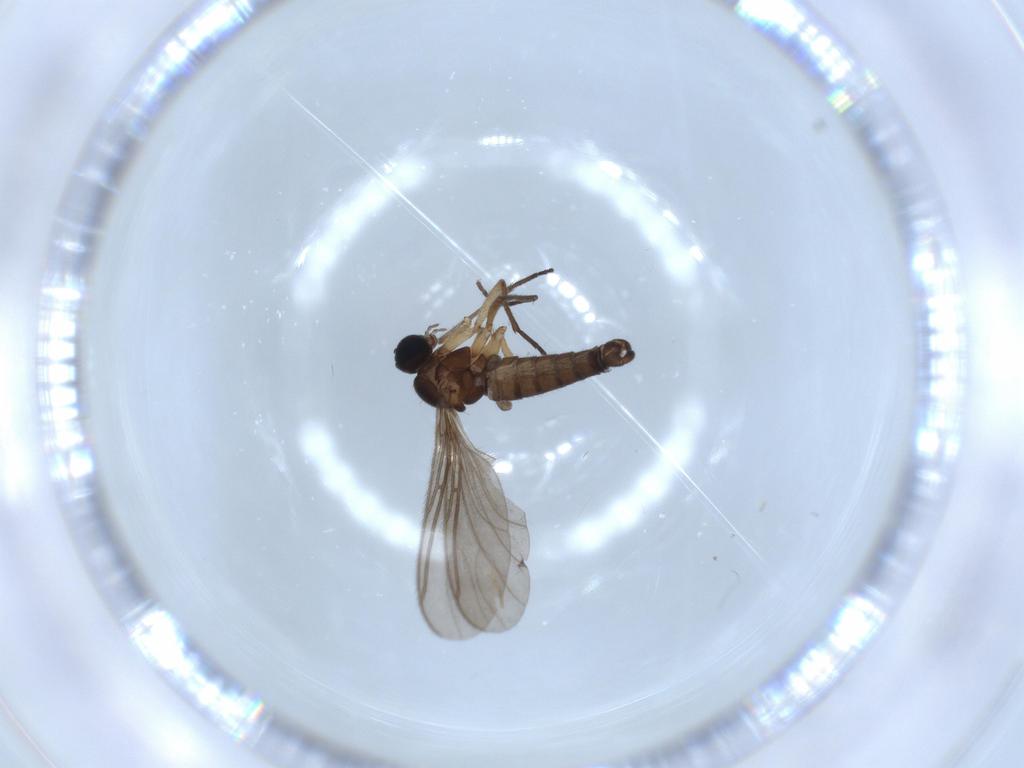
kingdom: Animalia
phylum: Arthropoda
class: Insecta
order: Diptera
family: Sciaridae
